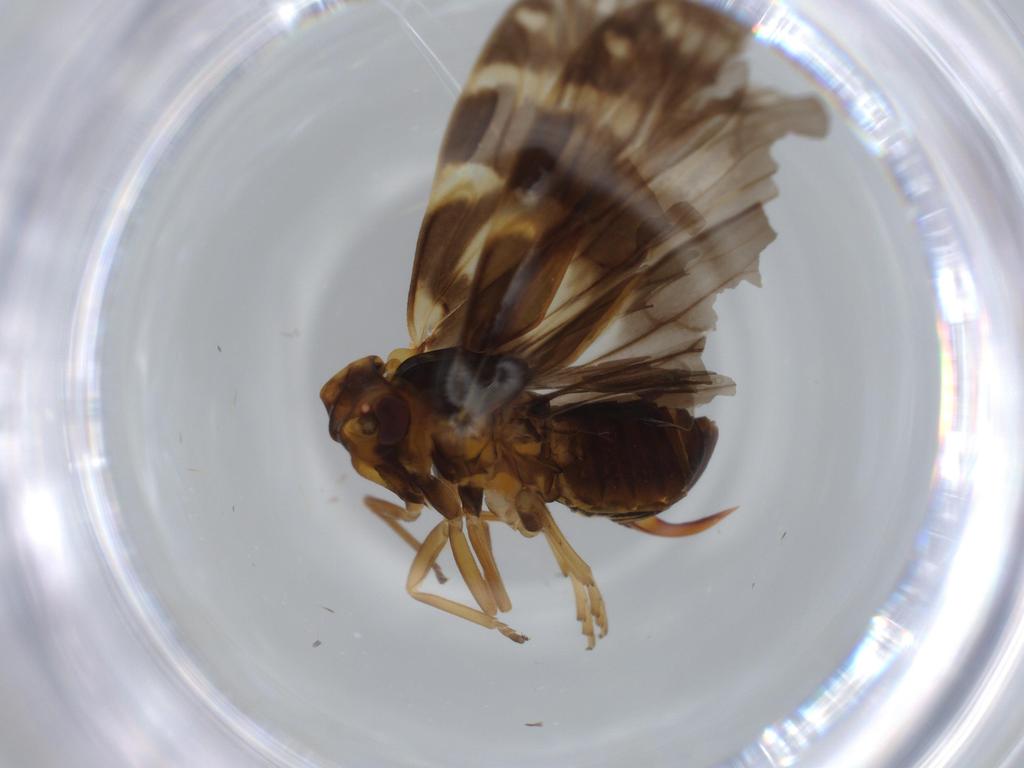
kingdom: Animalia
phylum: Arthropoda
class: Insecta
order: Hemiptera
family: Cixiidae
